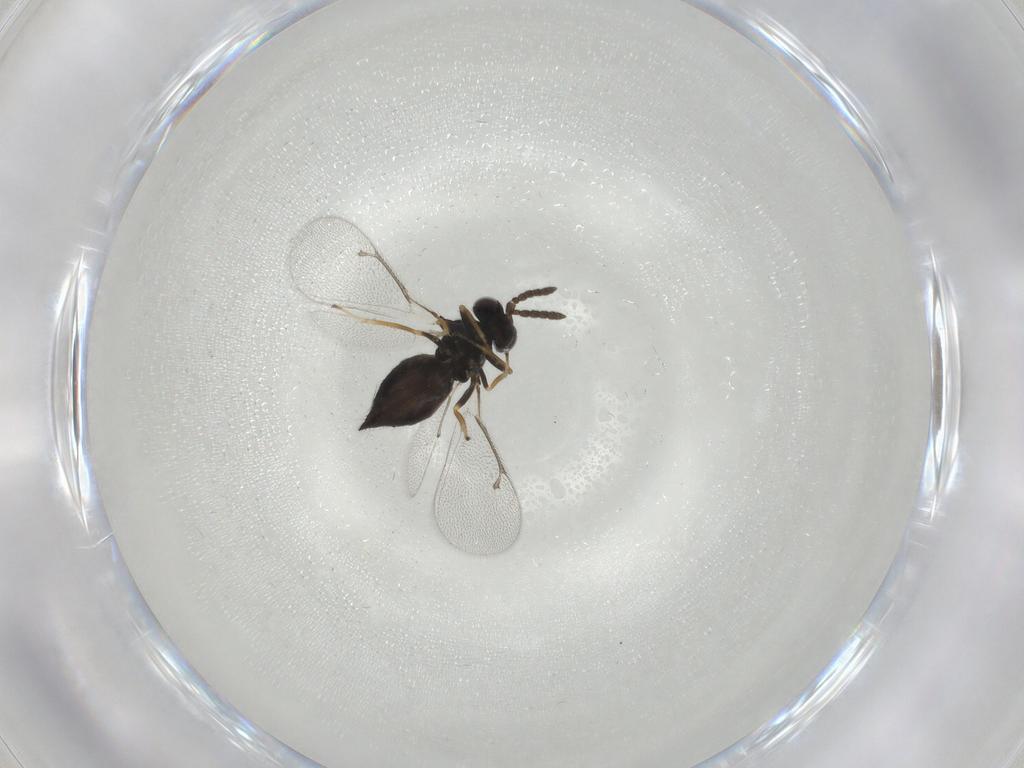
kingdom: Animalia
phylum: Arthropoda
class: Insecta
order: Hymenoptera
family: Eulophidae
